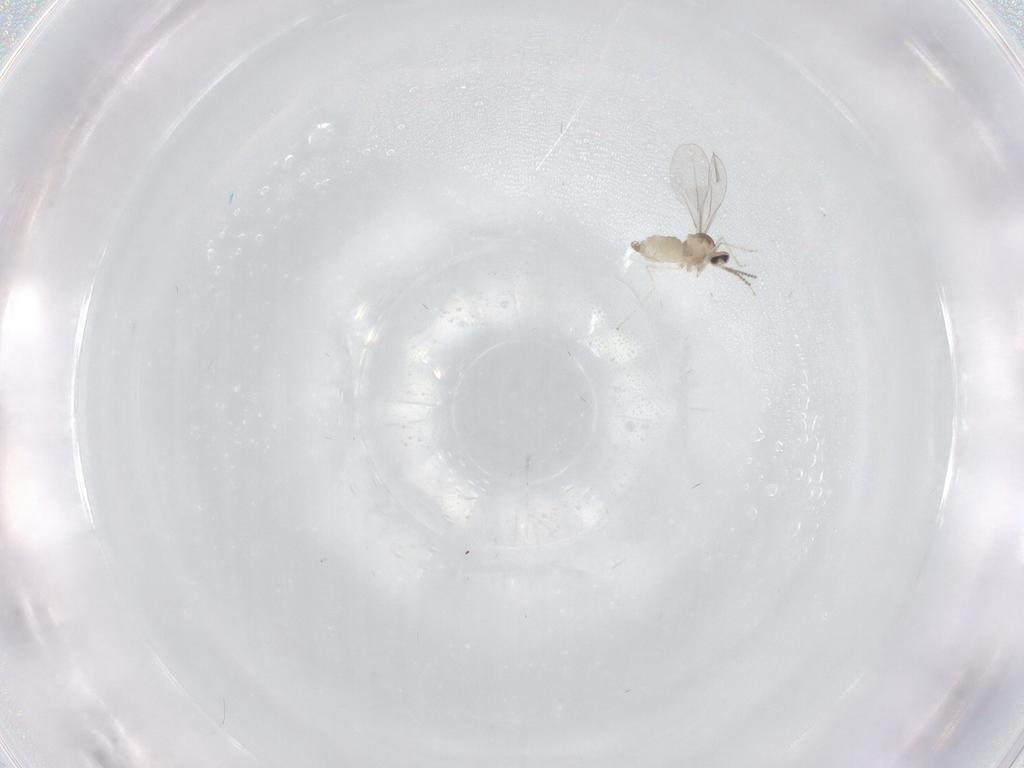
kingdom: Animalia
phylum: Arthropoda
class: Insecta
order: Diptera
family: Cecidomyiidae
